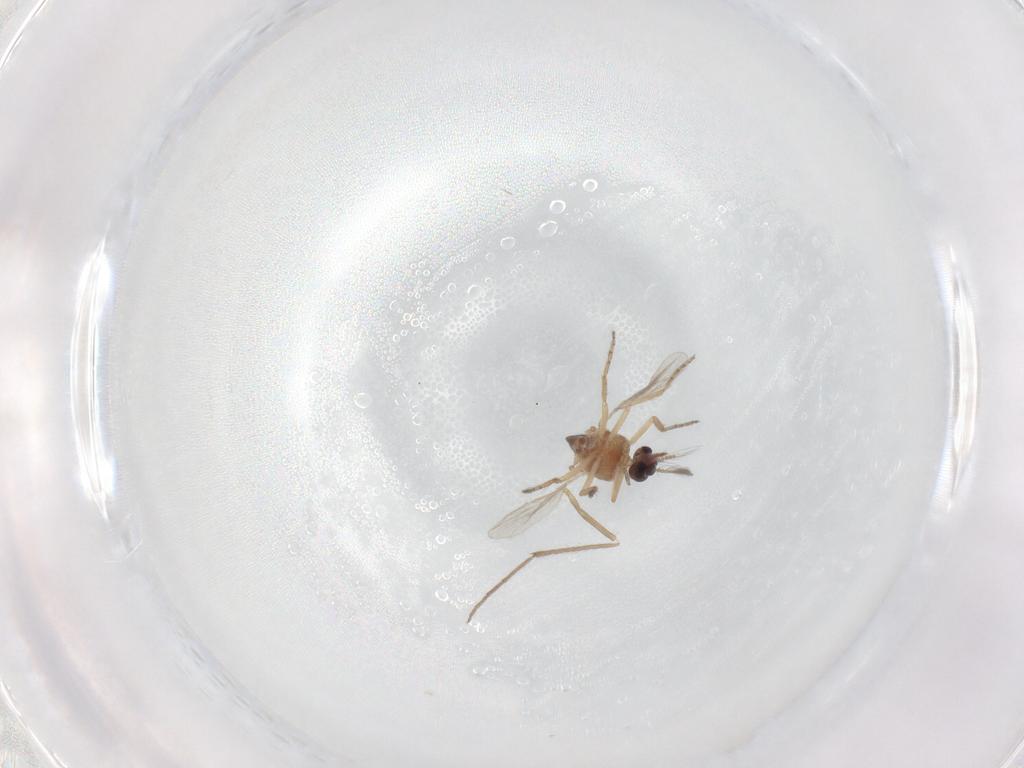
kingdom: Animalia
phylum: Arthropoda
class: Insecta
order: Diptera
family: Ceratopogonidae
